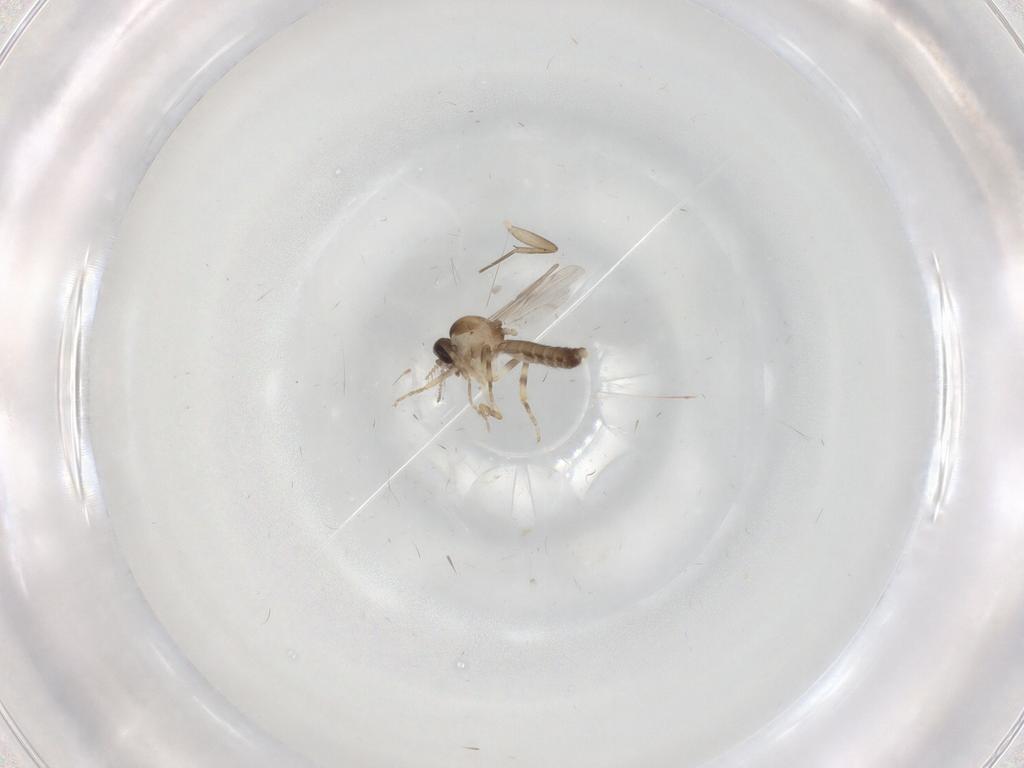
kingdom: Animalia
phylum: Arthropoda
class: Insecta
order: Diptera
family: Ceratopogonidae
